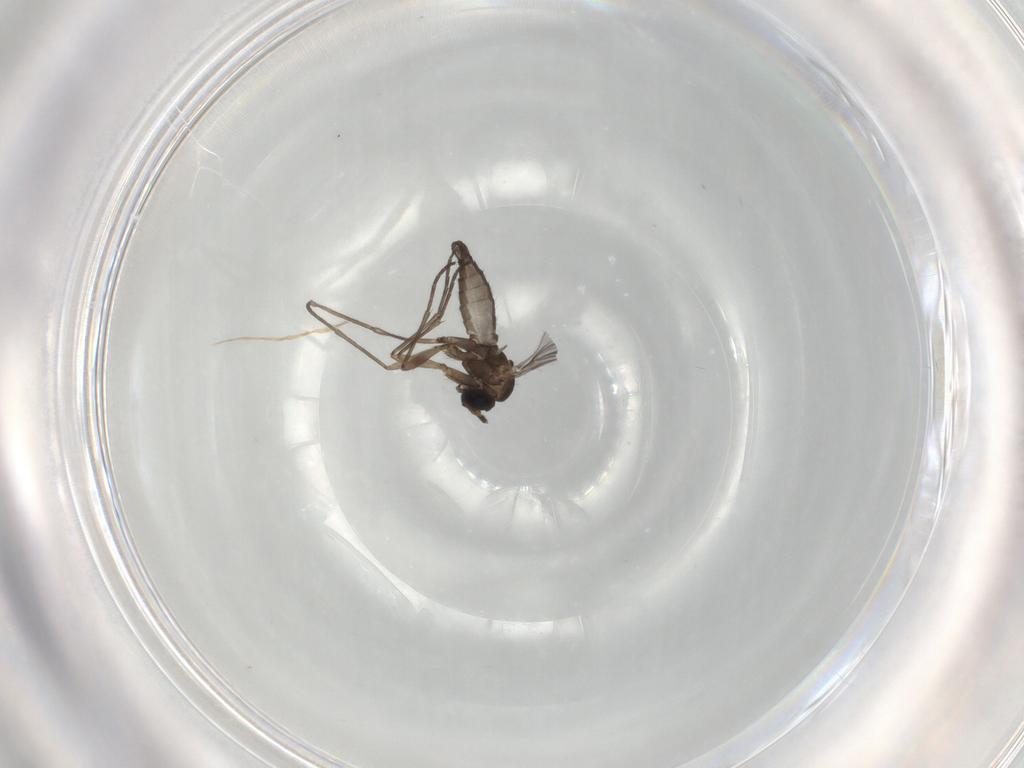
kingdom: Animalia
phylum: Arthropoda
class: Insecta
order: Diptera
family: Sciaridae
